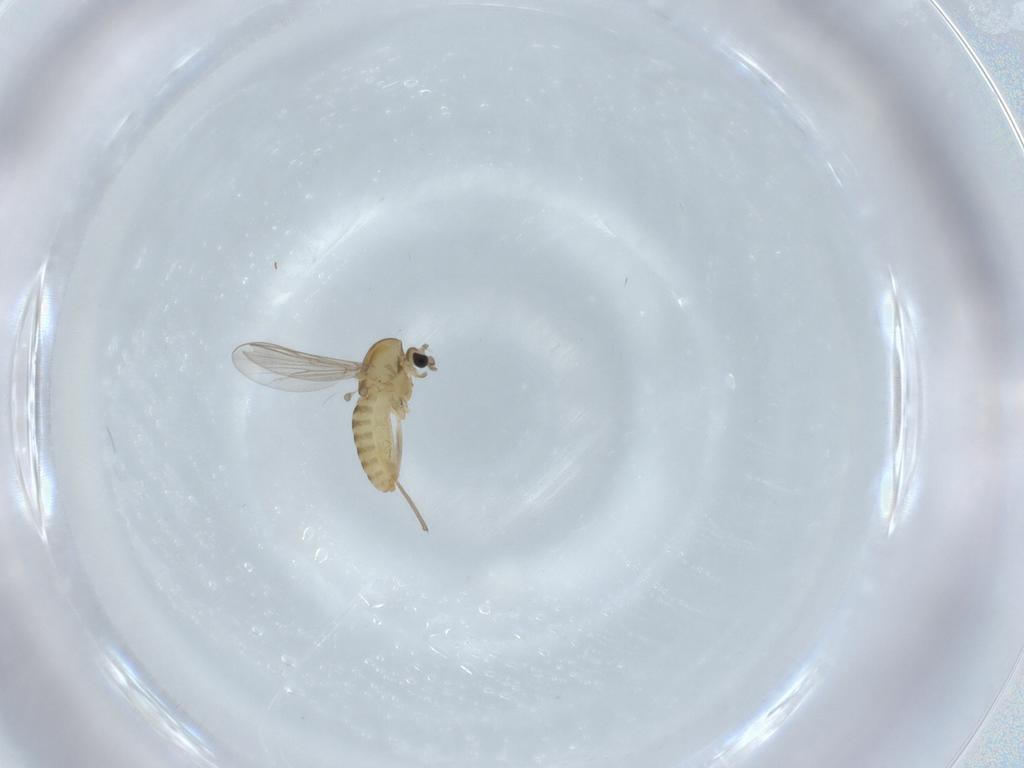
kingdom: Animalia
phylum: Arthropoda
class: Insecta
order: Diptera
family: Chironomidae
